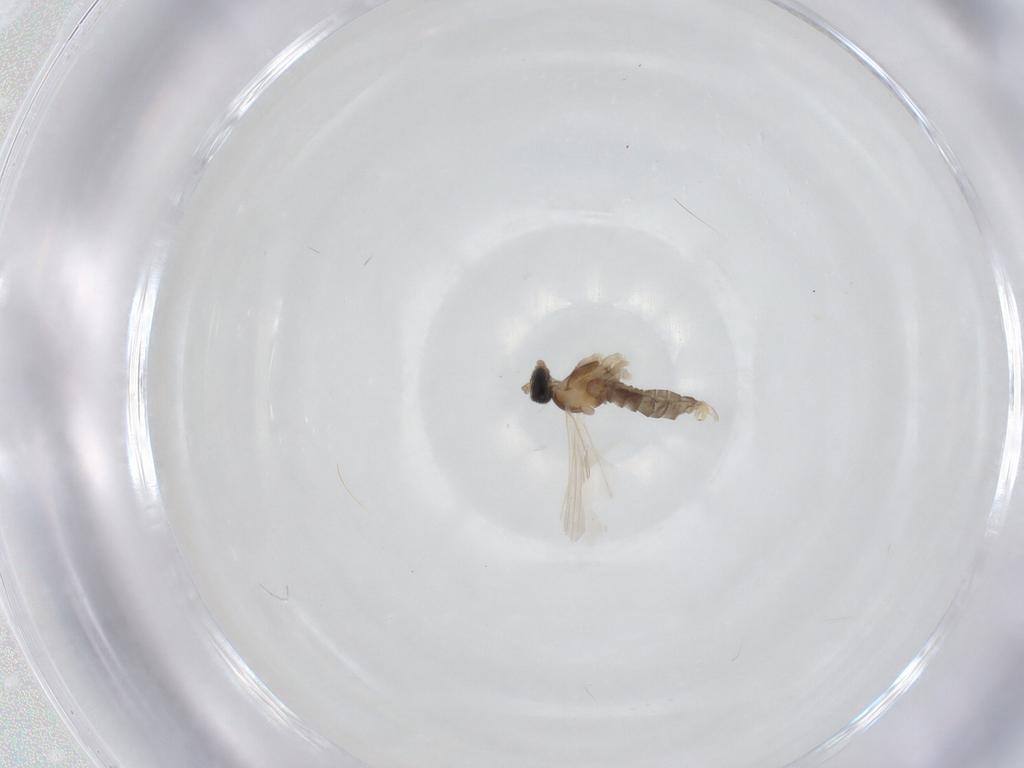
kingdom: Animalia
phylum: Arthropoda
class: Insecta
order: Diptera
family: Cecidomyiidae
